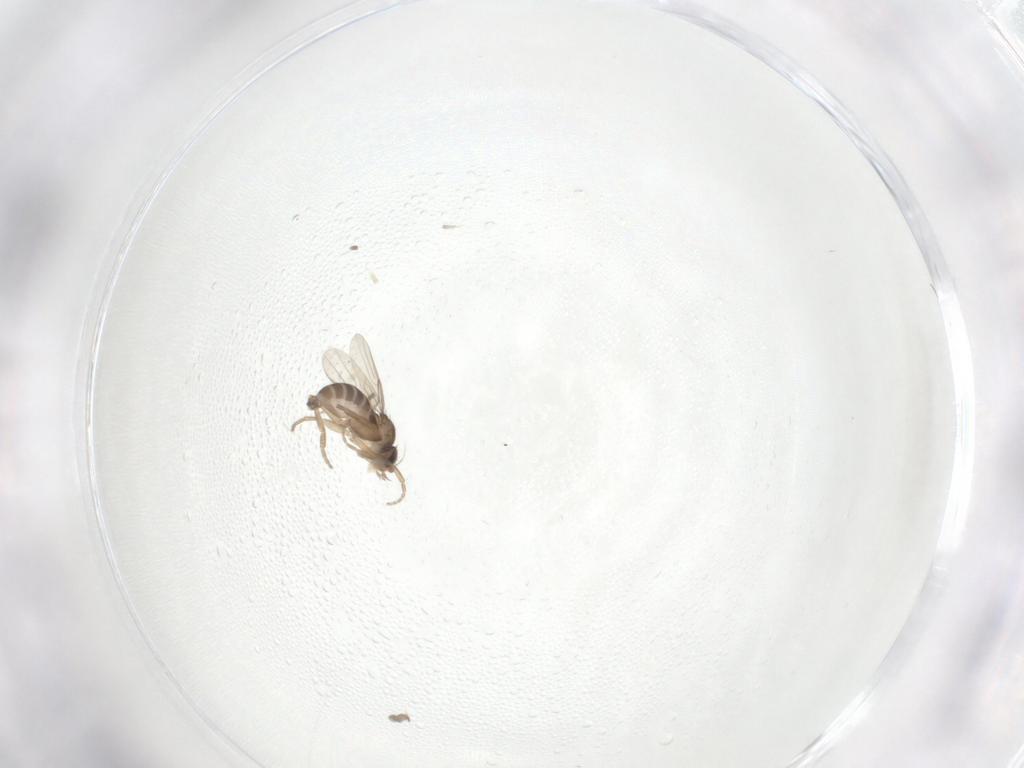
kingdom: Animalia
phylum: Arthropoda
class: Insecta
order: Diptera
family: Phoridae
